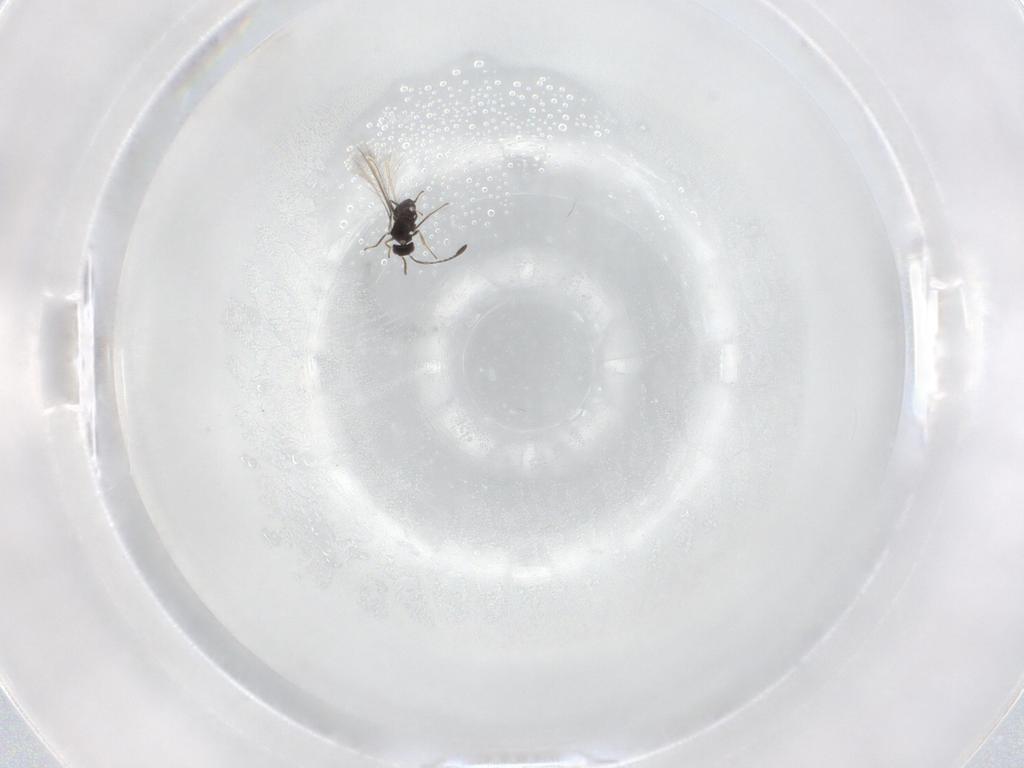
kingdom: Animalia
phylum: Arthropoda
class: Insecta
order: Hymenoptera
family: Mymaridae
